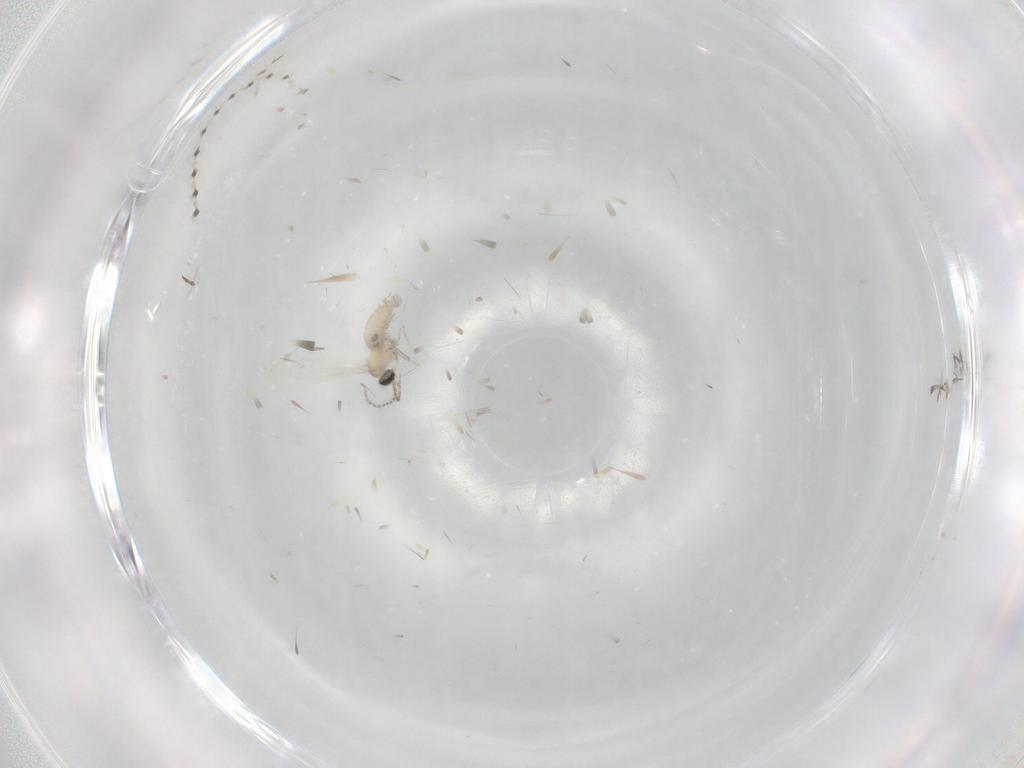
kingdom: Animalia
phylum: Arthropoda
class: Insecta
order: Diptera
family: Cecidomyiidae
